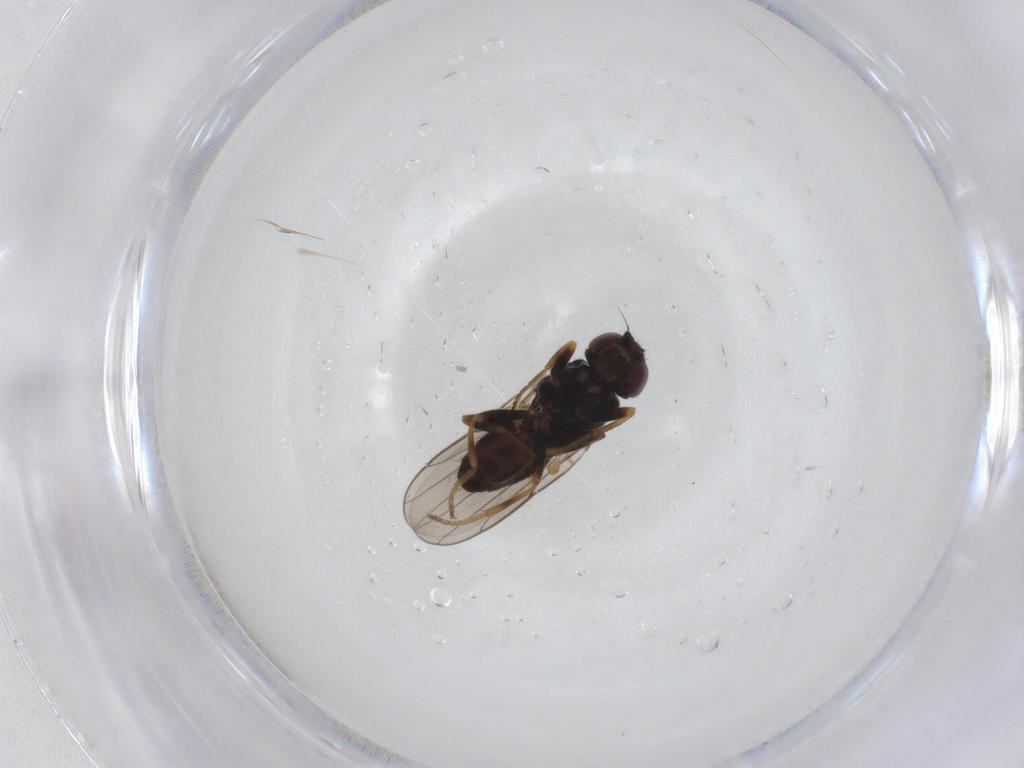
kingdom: Animalia
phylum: Arthropoda
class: Insecta
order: Diptera
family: Chloropidae
